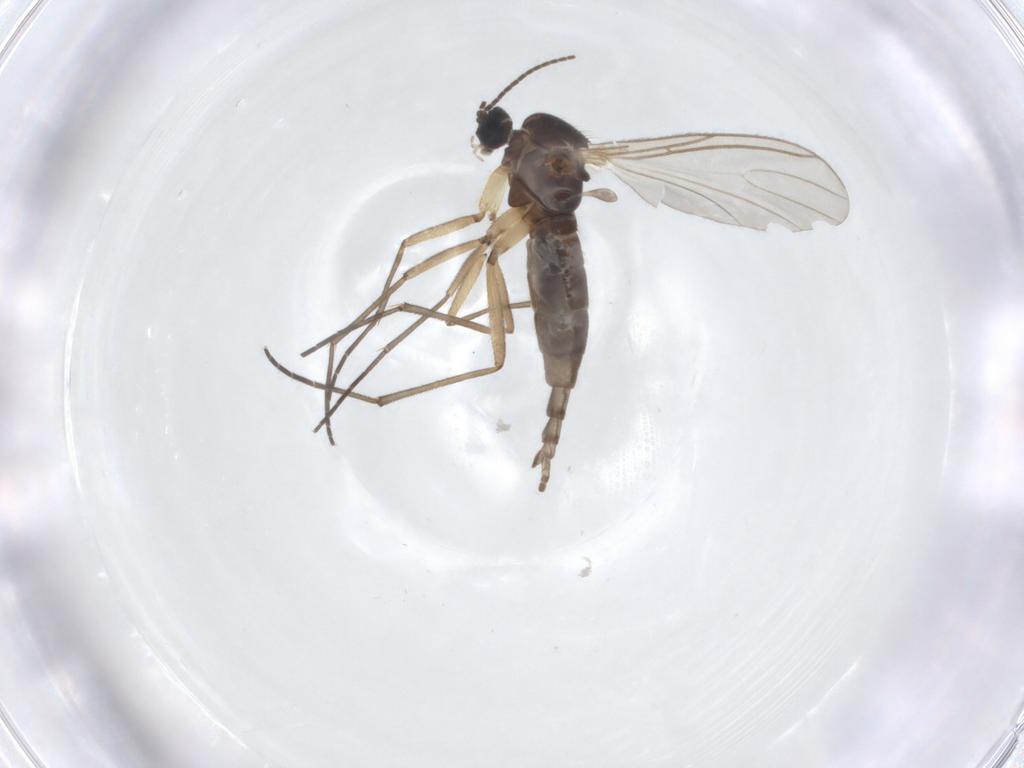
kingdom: Animalia
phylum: Arthropoda
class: Insecta
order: Diptera
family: Sciaridae
